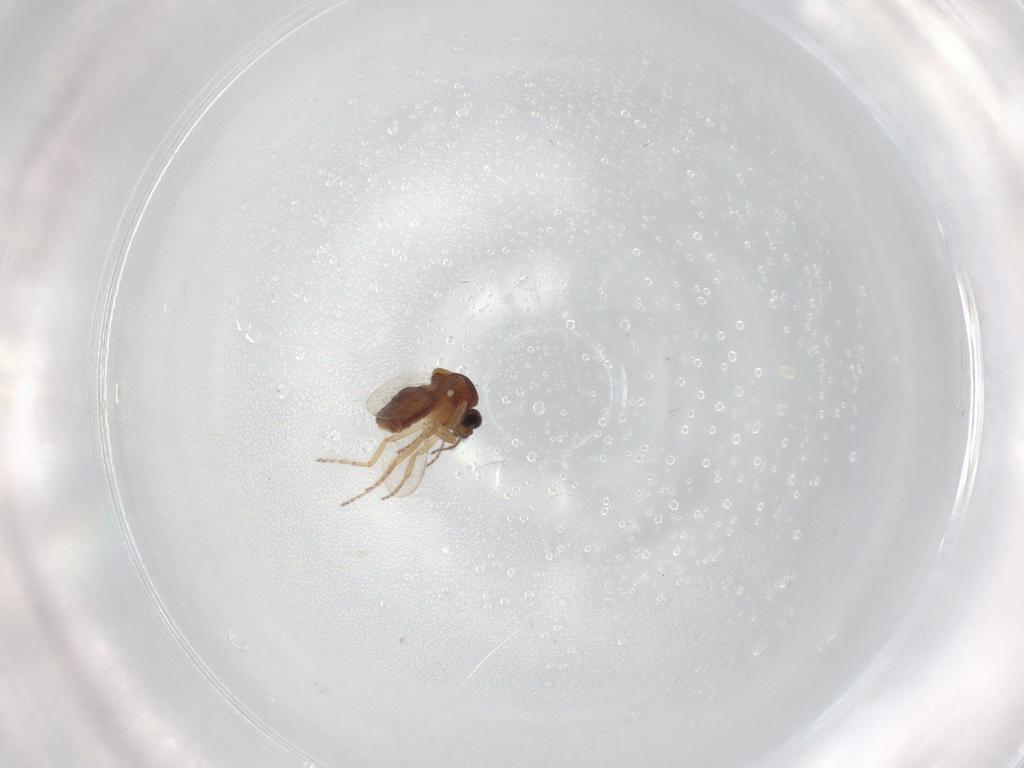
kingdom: Animalia
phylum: Arthropoda
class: Insecta
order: Diptera
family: Ceratopogonidae
